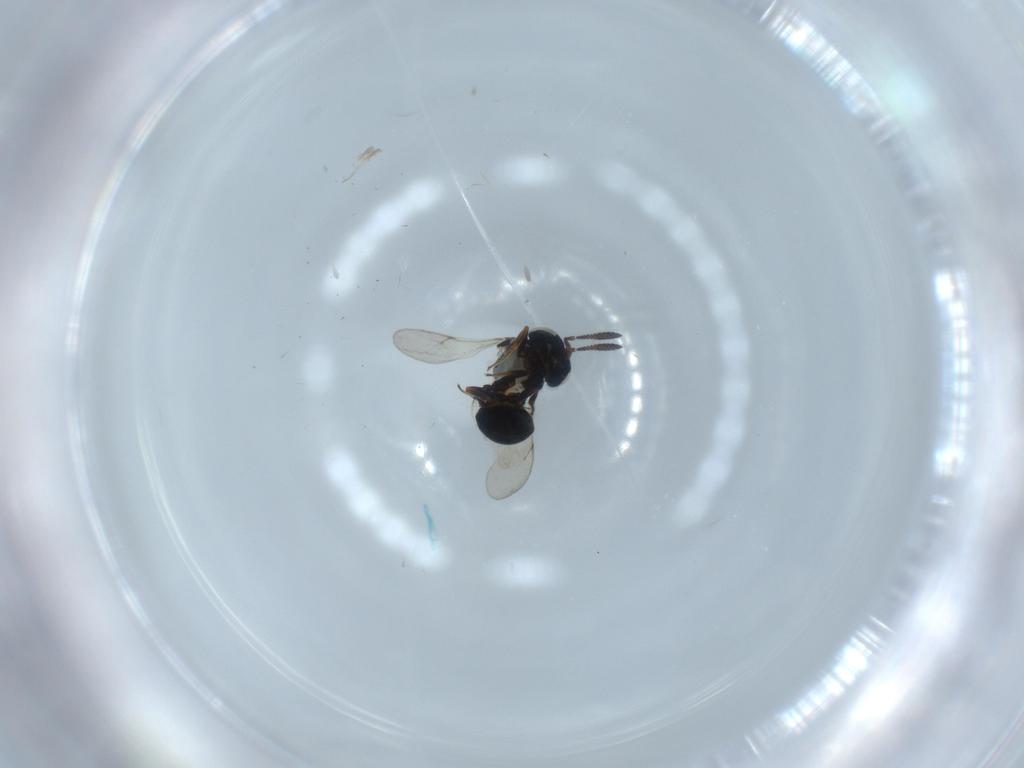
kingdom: Animalia
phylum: Arthropoda
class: Insecta
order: Hymenoptera
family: Scelionidae
